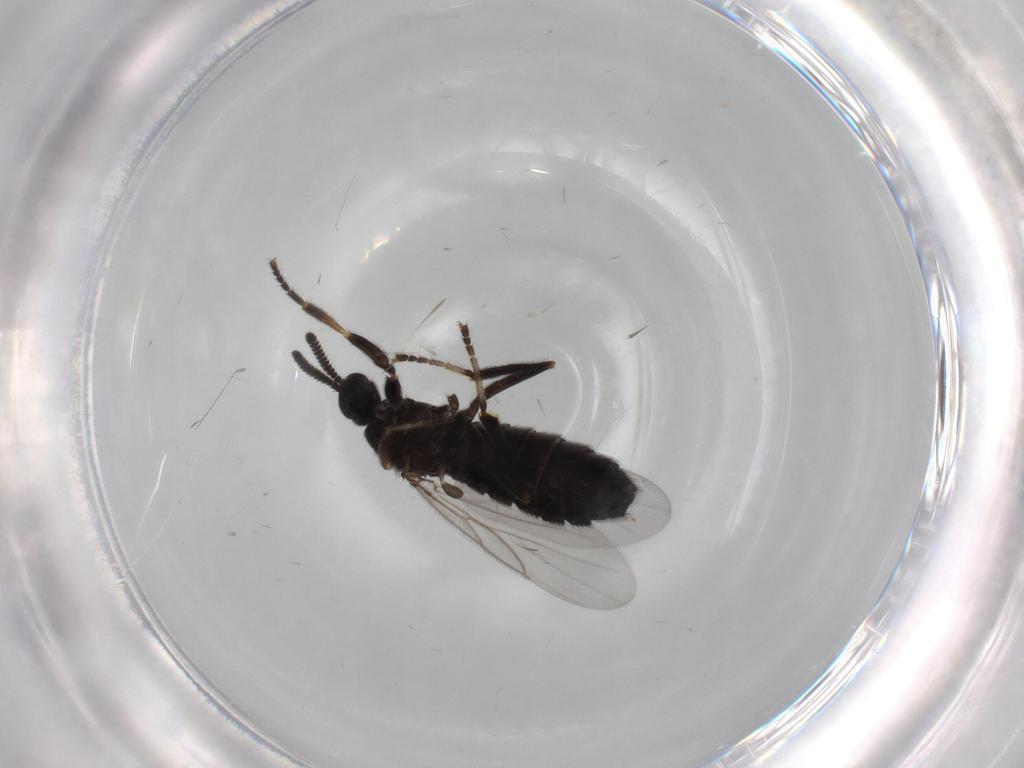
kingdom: Animalia
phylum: Arthropoda
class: Insecta
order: Diptera
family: Scatopsidae
